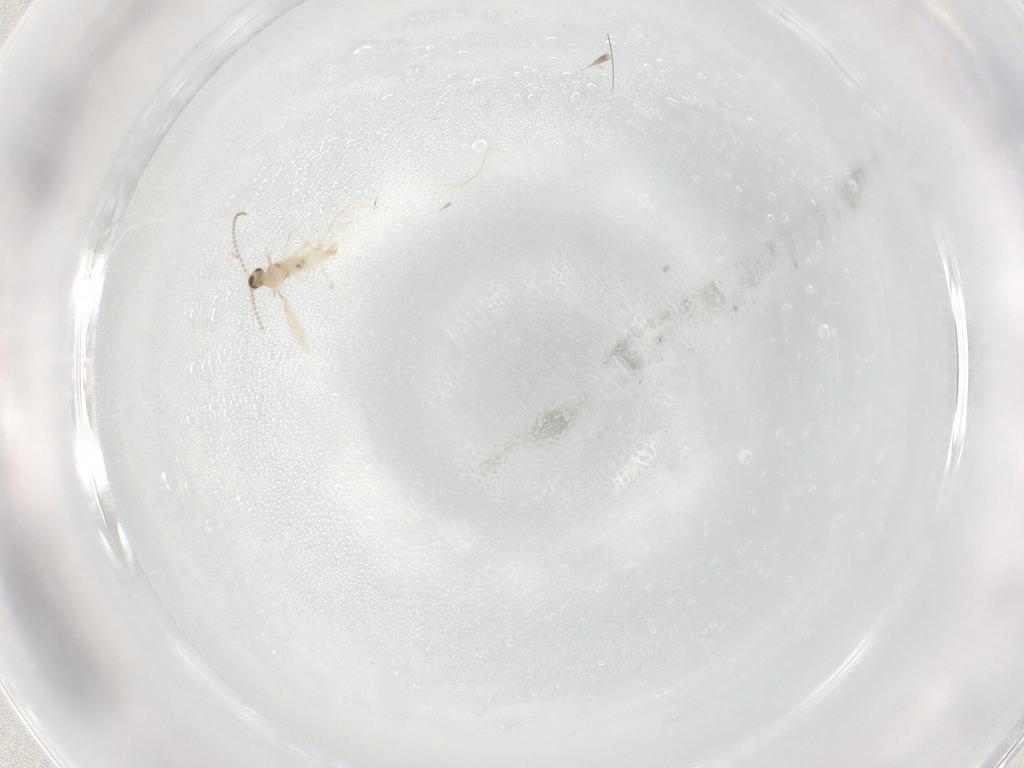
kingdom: Animalia
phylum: Arthropoda
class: Insecta
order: Diptera
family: Cecidomyiidae
